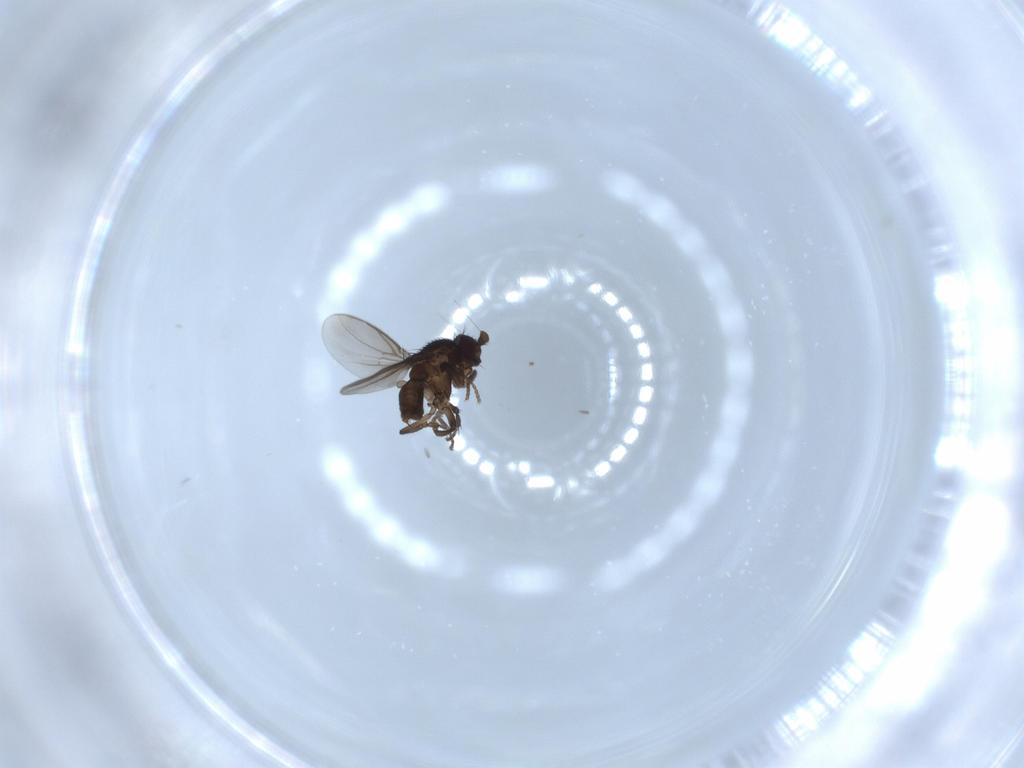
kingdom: Animalia
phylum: Arthropoda
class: Insecta
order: Diptera
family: Sphaeroceridae
